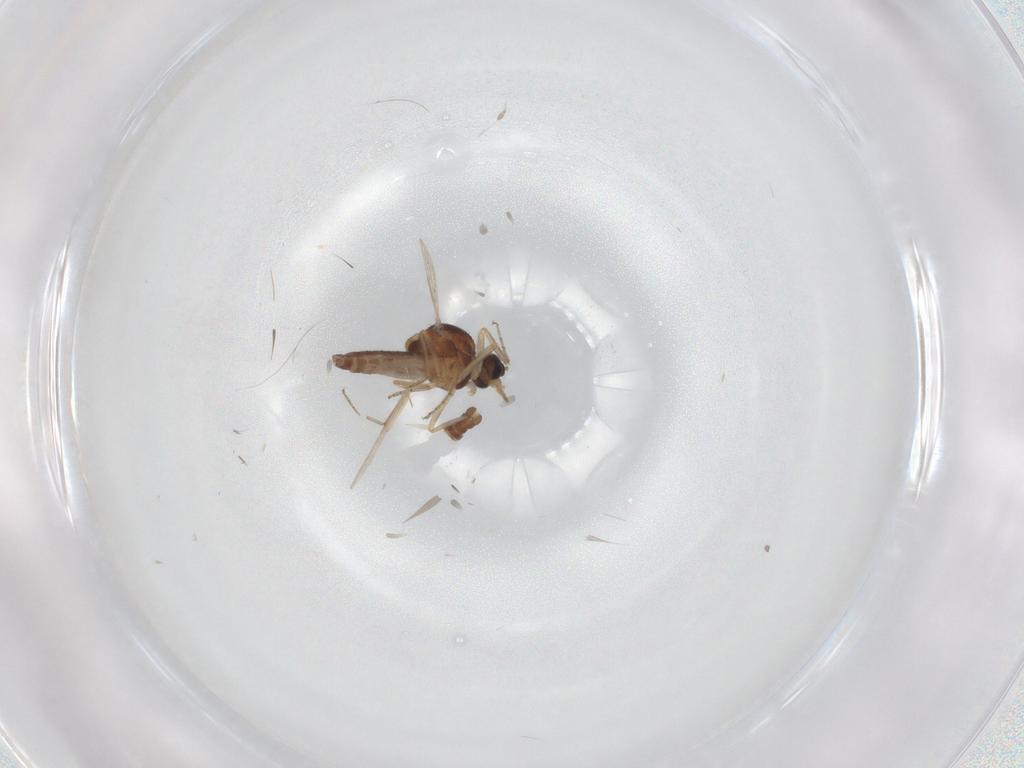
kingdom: Animalia
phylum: Arthropoda
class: Insecta
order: Diptera
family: Ceratopogonidae
